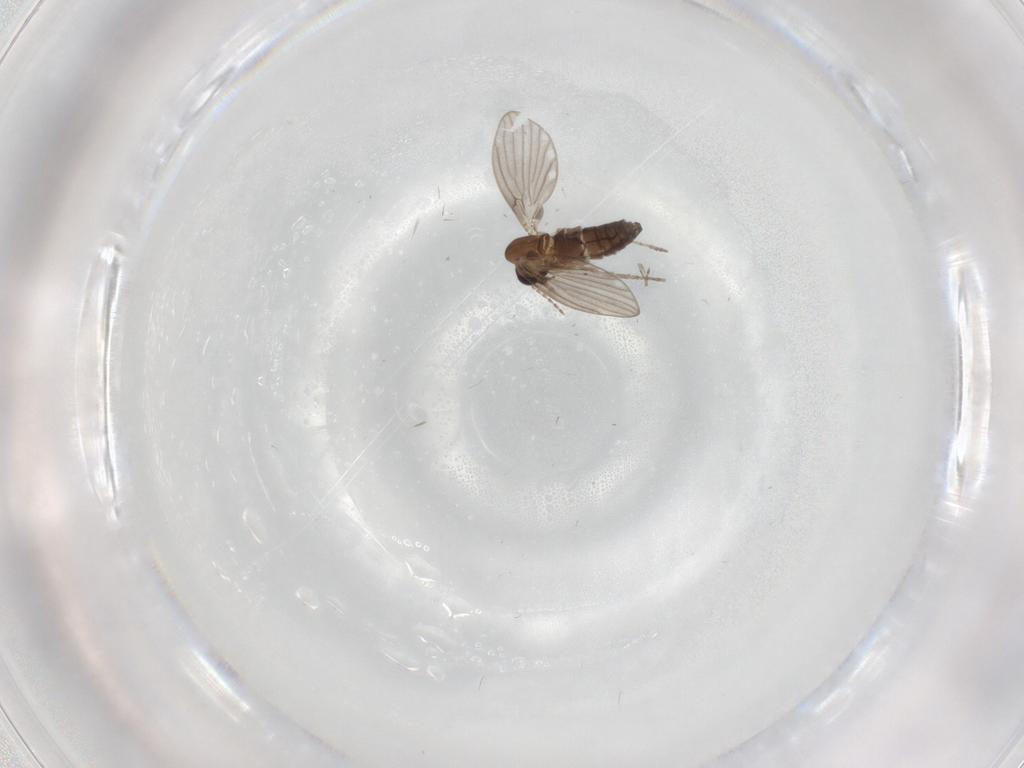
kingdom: Animalia
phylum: Arthropoda
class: Insecta
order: Diptera
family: Psychodidae
